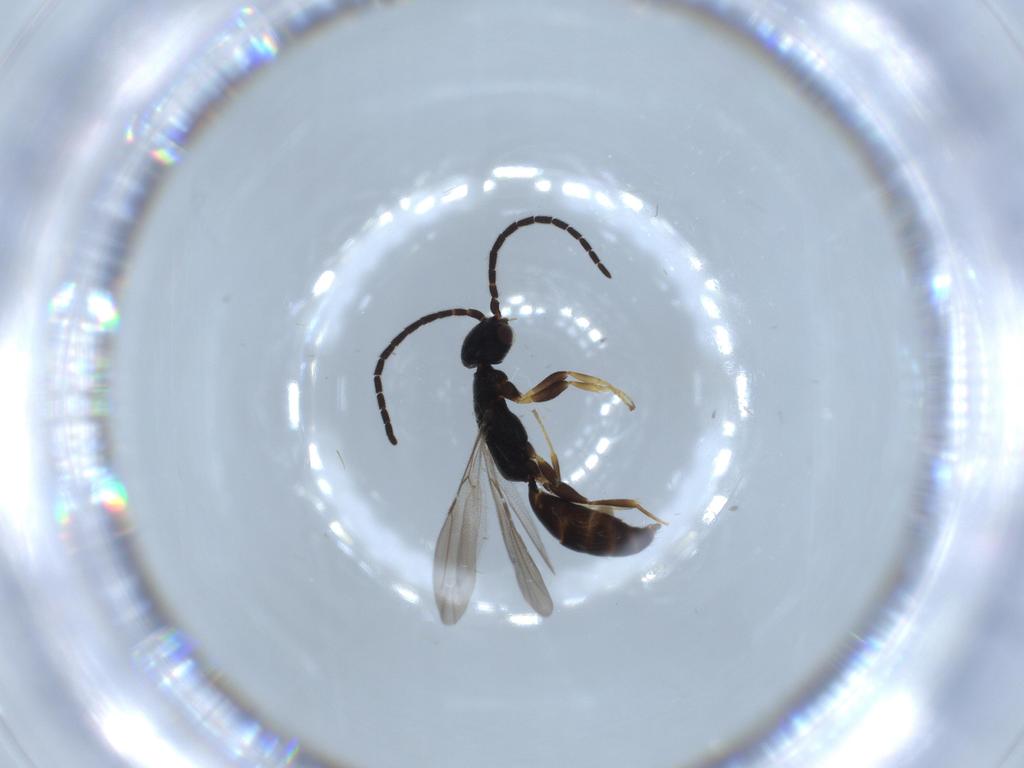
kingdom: Animalia
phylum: Arthropoda
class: Insecta
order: Hymenoptera
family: Bethylidae
